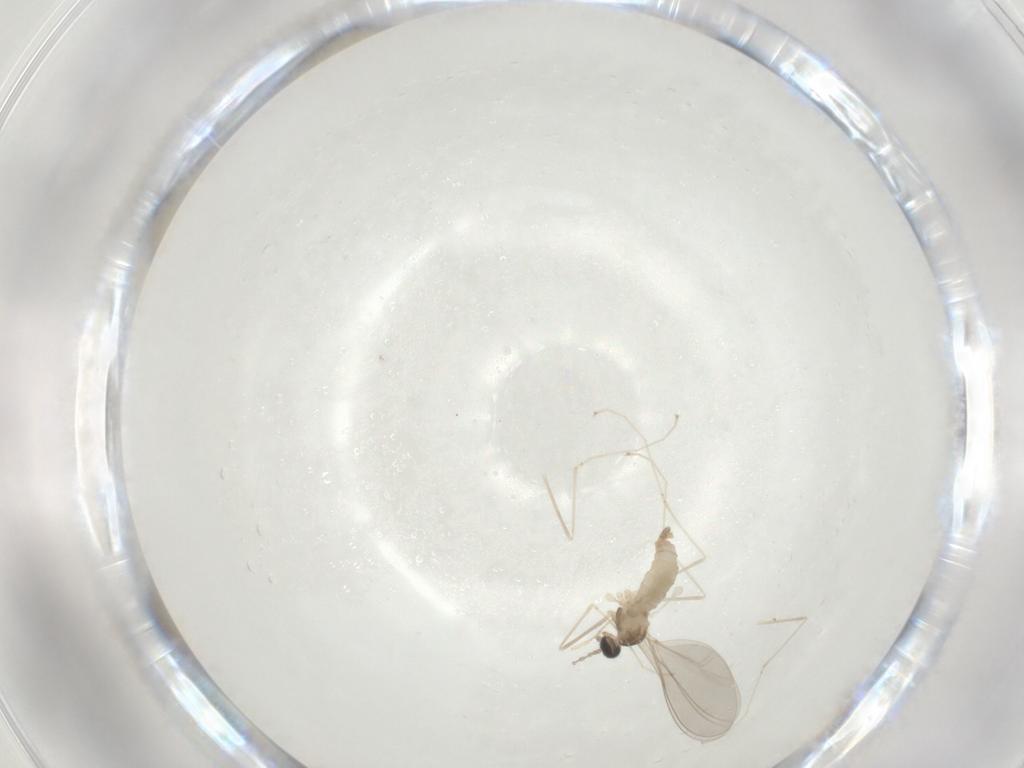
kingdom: Animalia
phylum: Arthropoda
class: Insecta
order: Diptera
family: Cecidomyiidae
